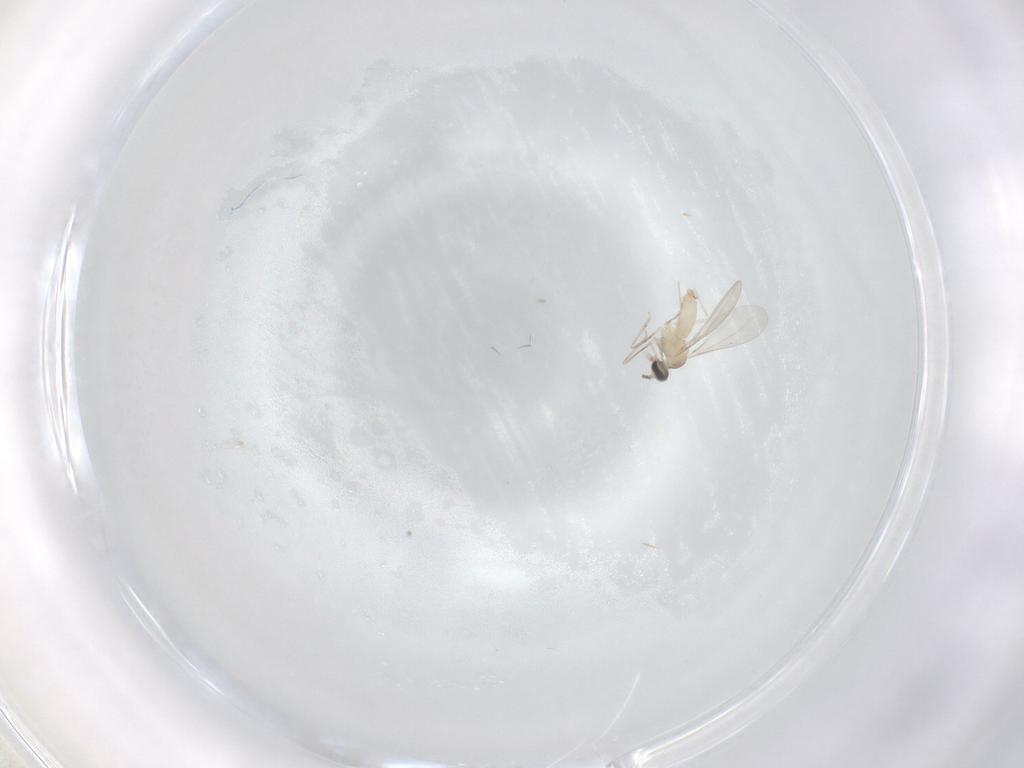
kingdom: Animalia
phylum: Arthropoda
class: Insecta
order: Diptera
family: Cecidomyiidae
